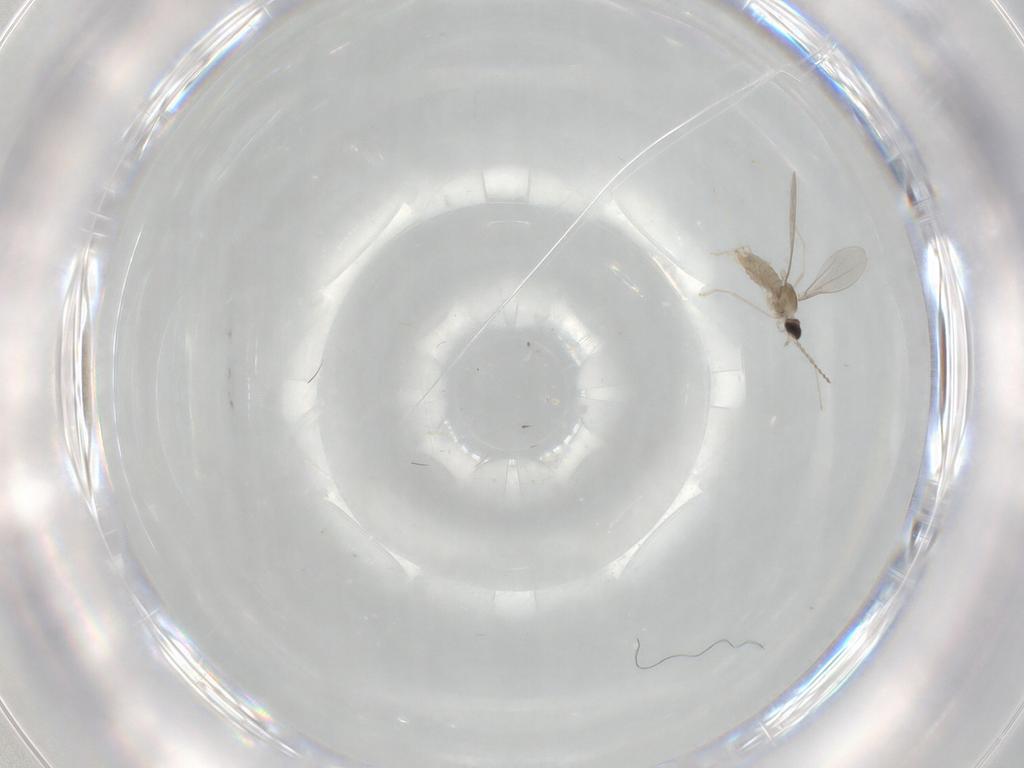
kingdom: Animalia
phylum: Arthropoda
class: Insecta
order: Diptera
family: Cecidomyiidae
